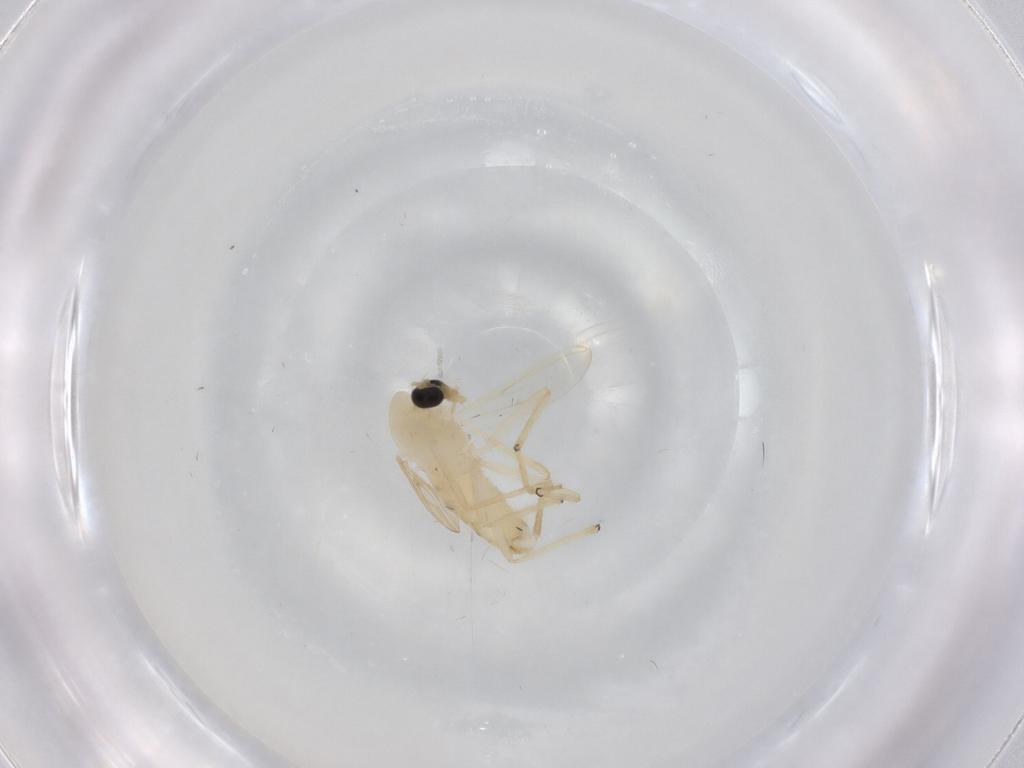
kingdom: Animalia
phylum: Arthropoda
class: Insecta
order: Diptera
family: Chironomidae
